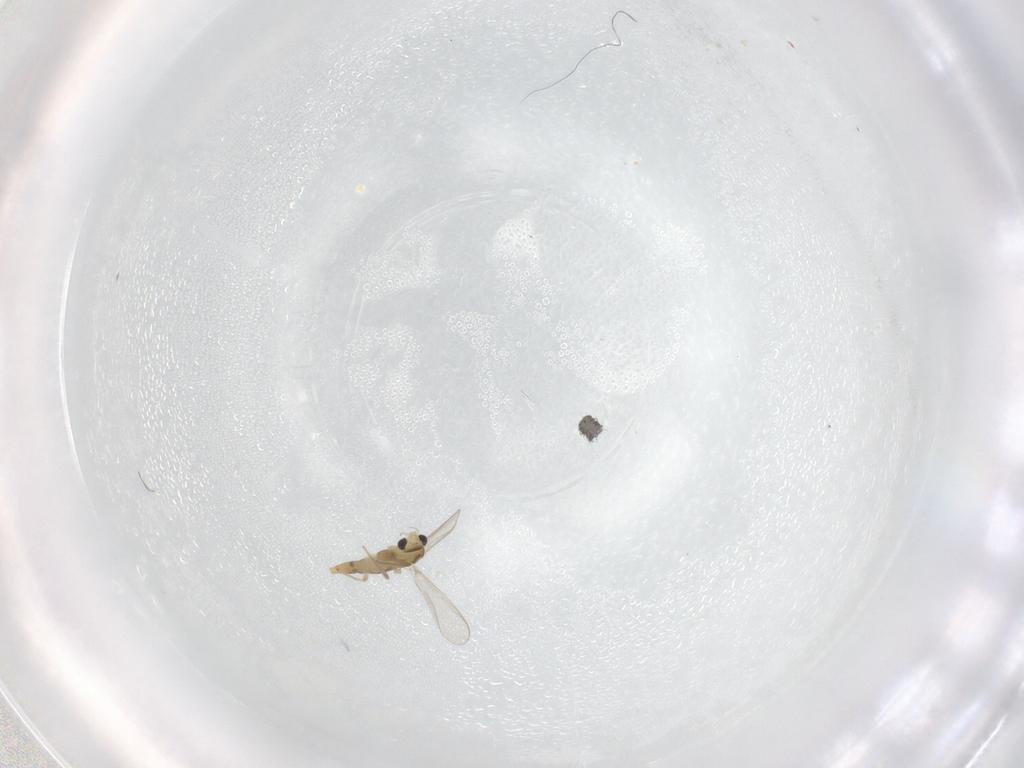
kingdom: Animalia
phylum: Arthropoda
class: Insecta
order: Diptera
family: Chironomidae
